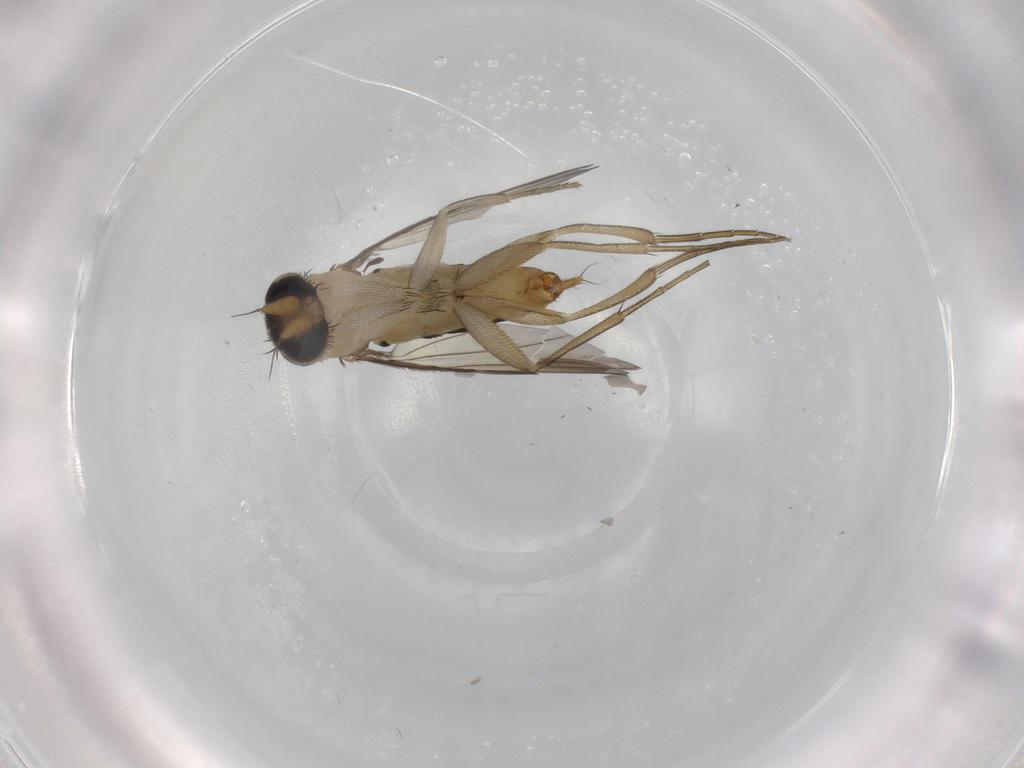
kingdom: Animalia
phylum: Arthropoda
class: Insecta
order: Diptera
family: Phoridae
